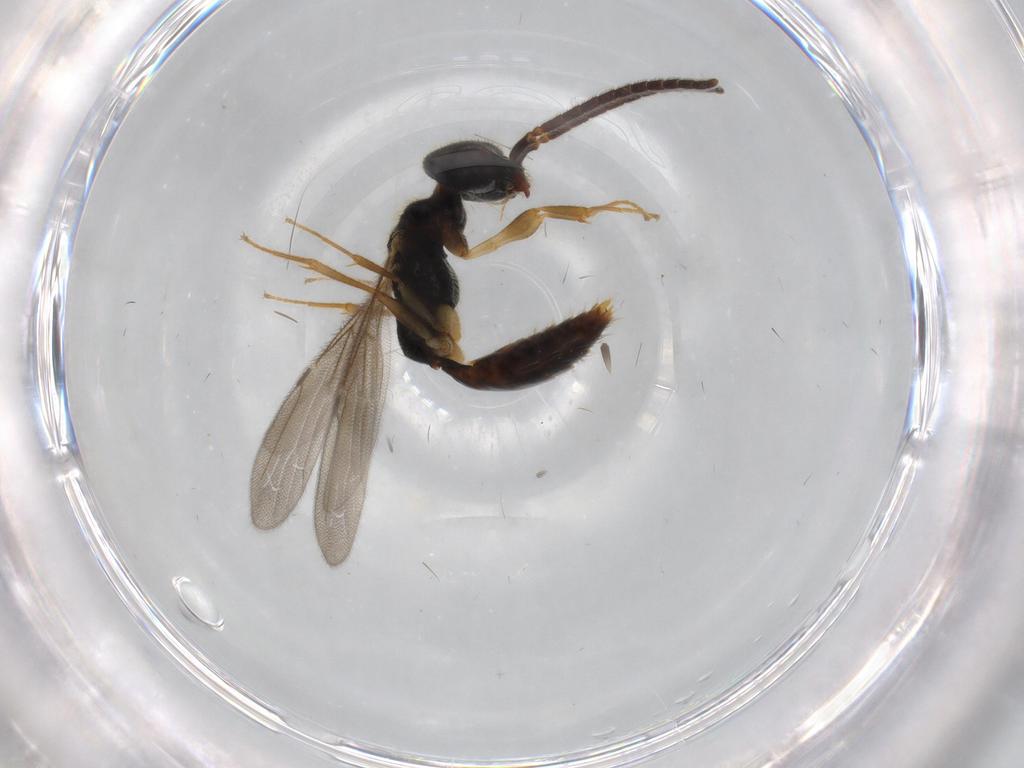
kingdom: Animalia
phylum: Arthropoda
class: Insecta
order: Hymenoptera
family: Bethylidae
